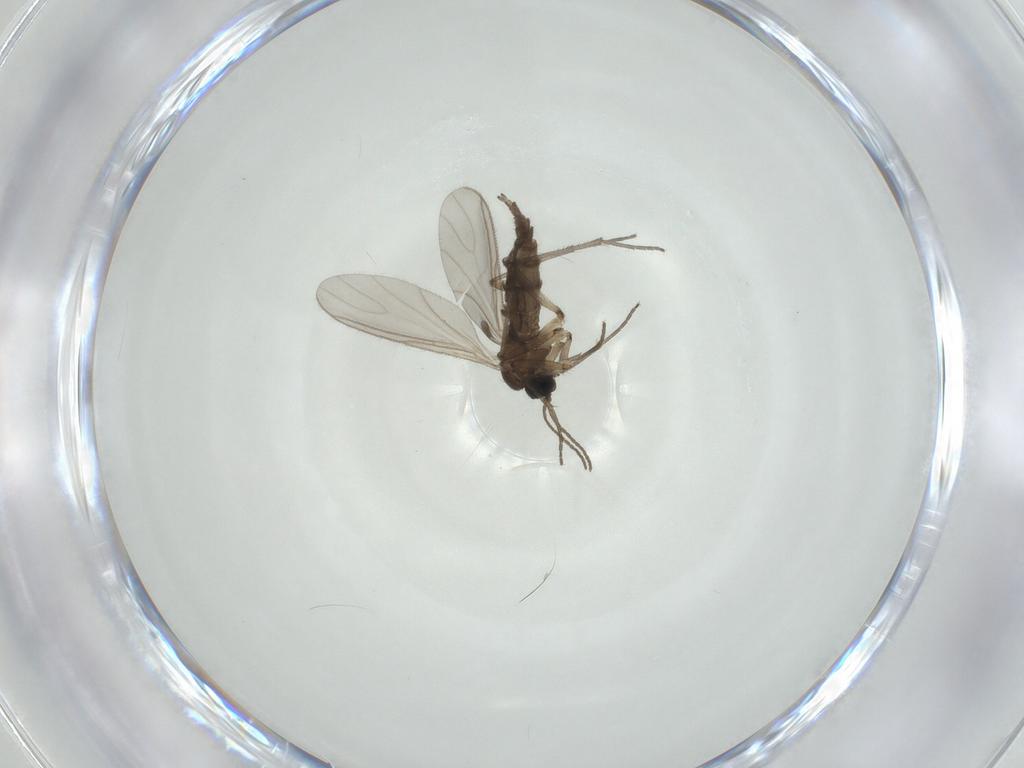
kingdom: Animalia
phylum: Arthropoda
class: Insecta
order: Diptera
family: Sciaridae
